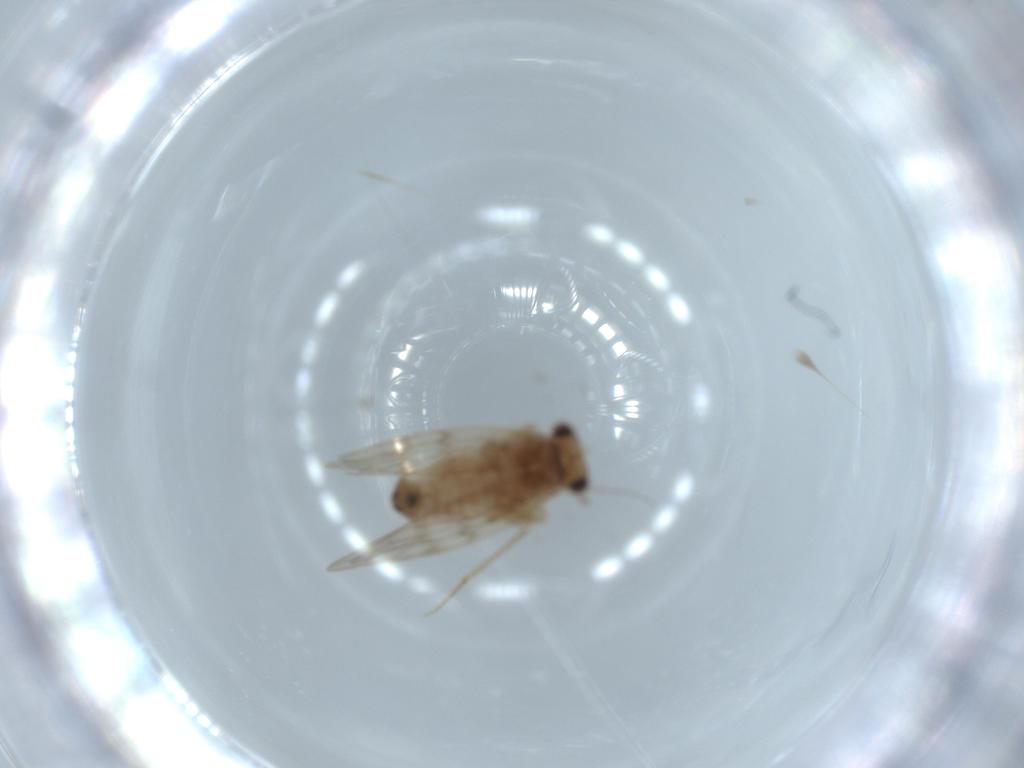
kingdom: Animalia
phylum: Arthropoda
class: Insecta
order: Psocodea
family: Lepidopsocidae
